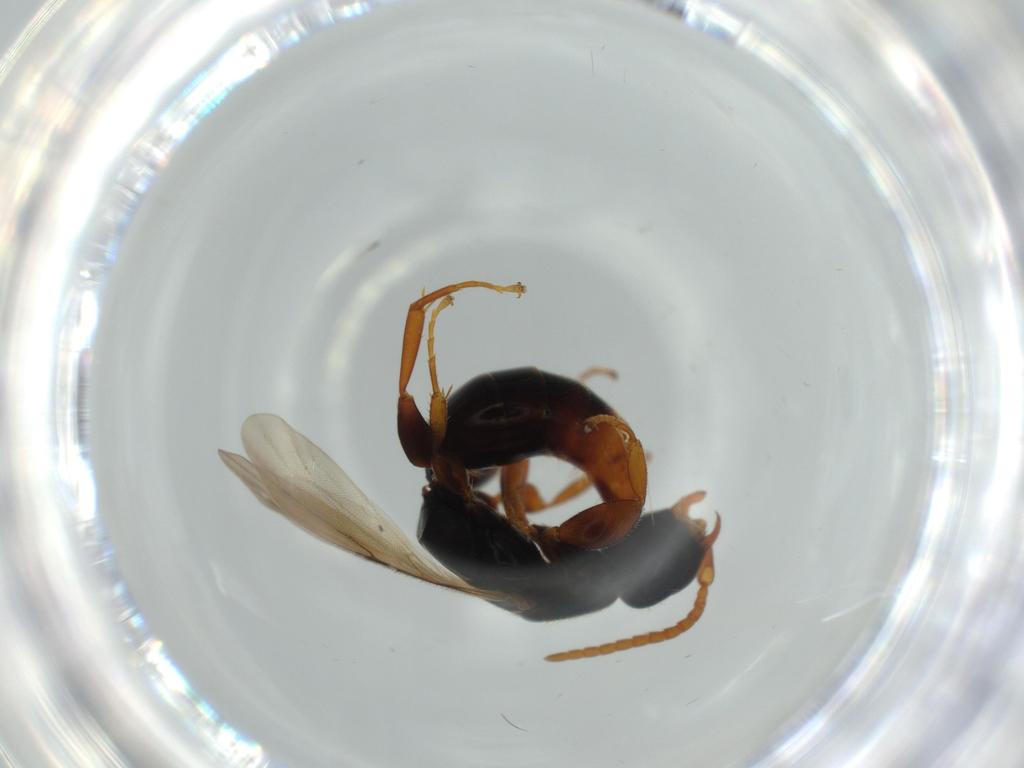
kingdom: Animalia
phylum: Arthropoda
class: Insecta
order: Hymenoptera
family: Bethylidae
